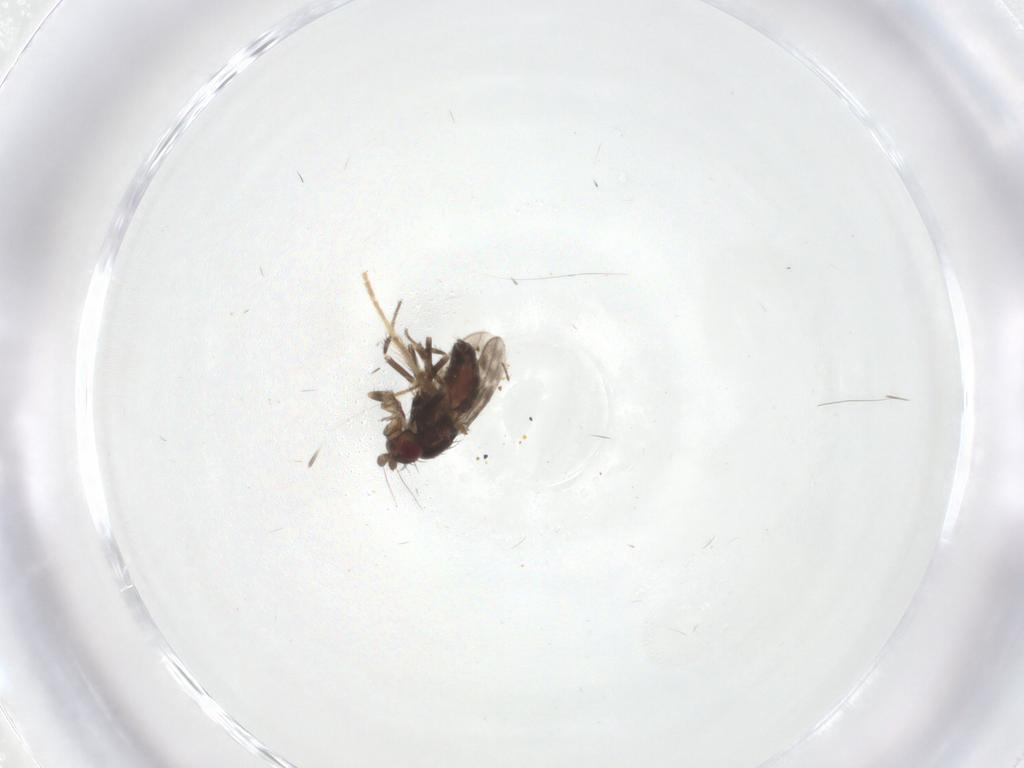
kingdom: Animalia
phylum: Arthropoda
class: Insecta
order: Diptera
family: Sphaeroceridae
